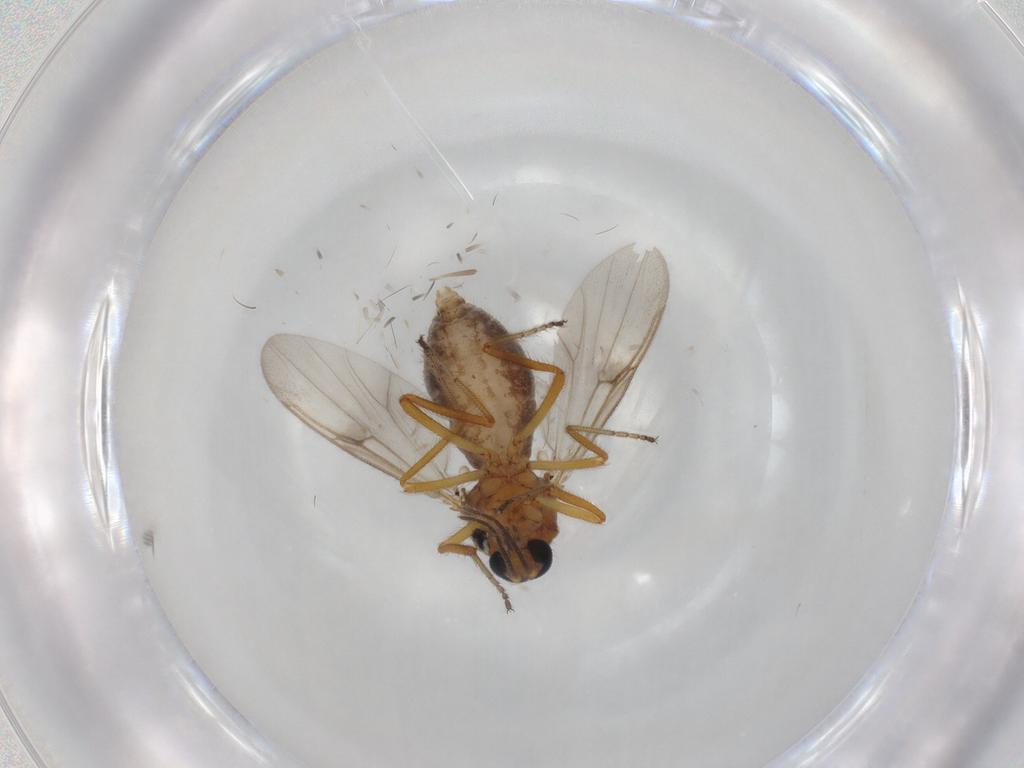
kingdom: Animalia
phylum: Arthropoda
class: Insecta
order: Diptera
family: Hybotidae
